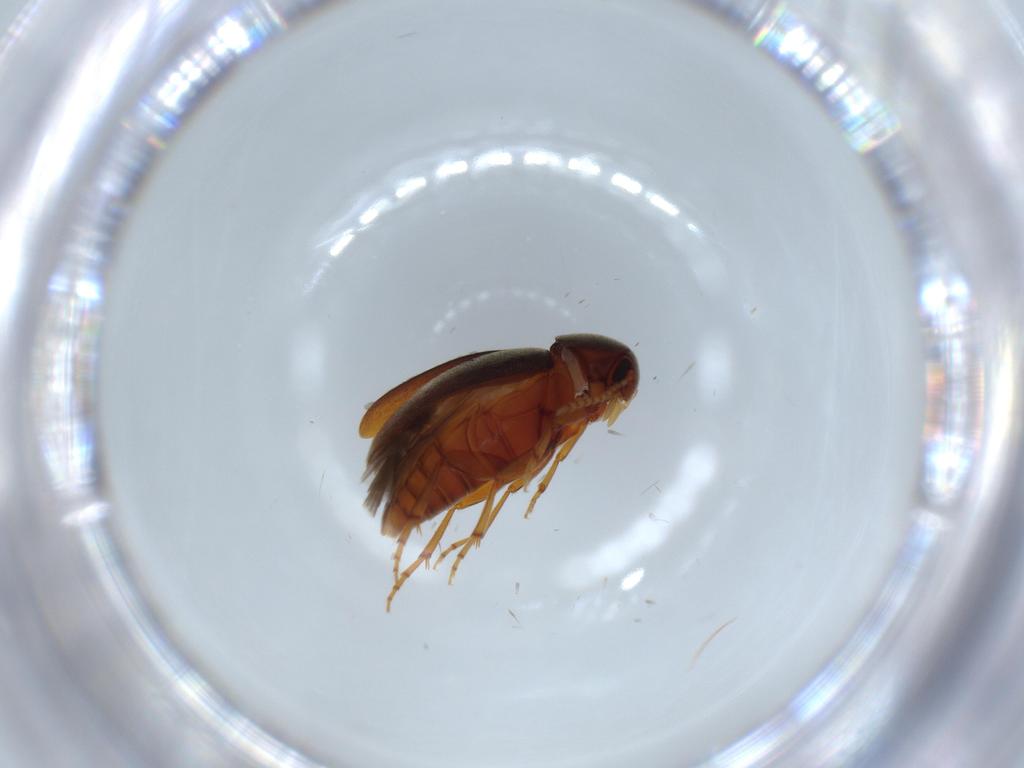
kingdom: Animalia
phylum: Arthropoda
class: Insecta
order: Coleoptera
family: Scraptiidae
